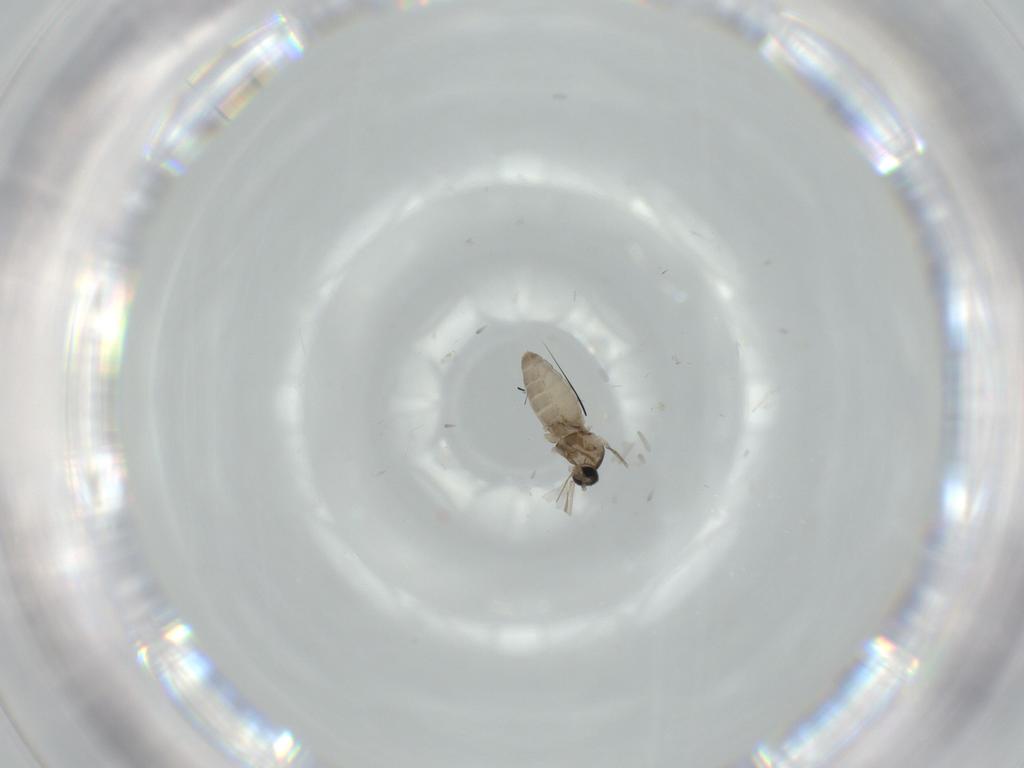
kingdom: Animalia
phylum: Arthropoda
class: Insecta
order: Diptera
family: Cecidomyiidae
